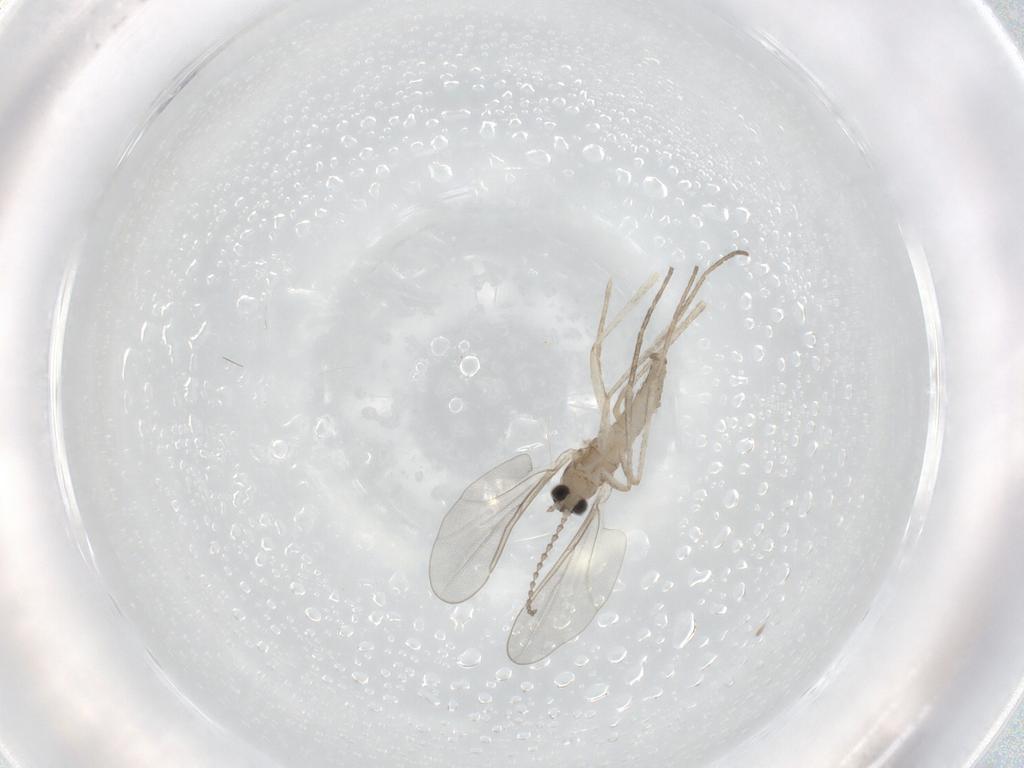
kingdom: Animalia
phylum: Arthropoda
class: Insecta
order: Diptera
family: Cecidomyiidae
